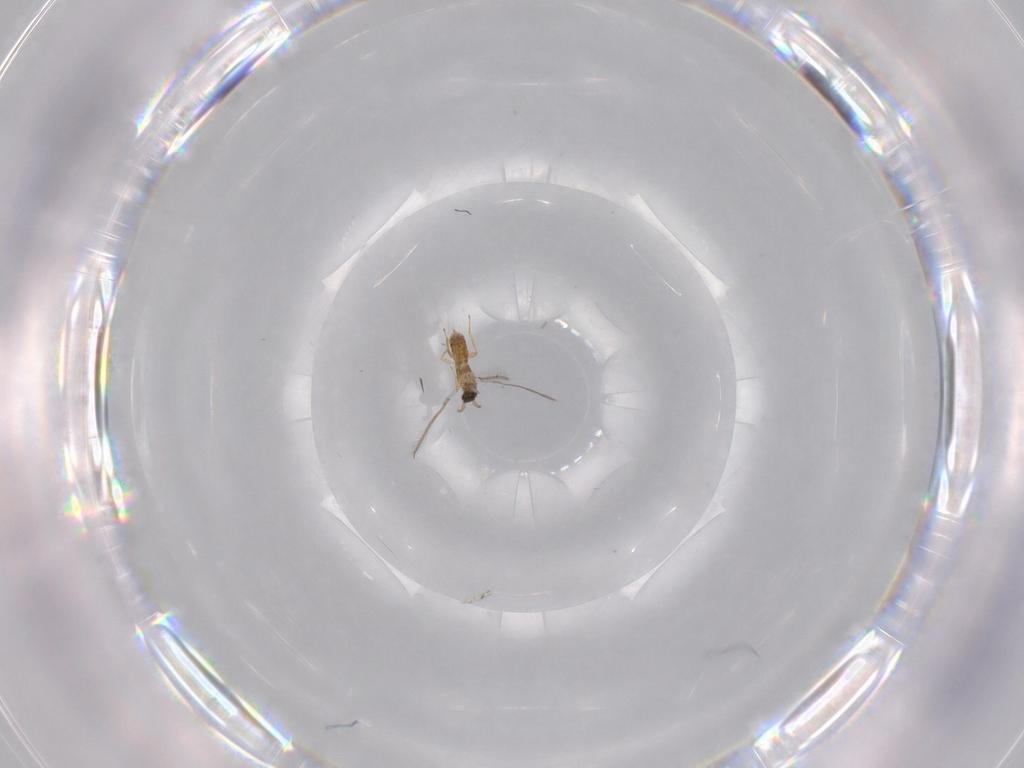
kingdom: Animalia
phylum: Arthropoda
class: Insecta
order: Hymenoptera
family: Mymaridae
